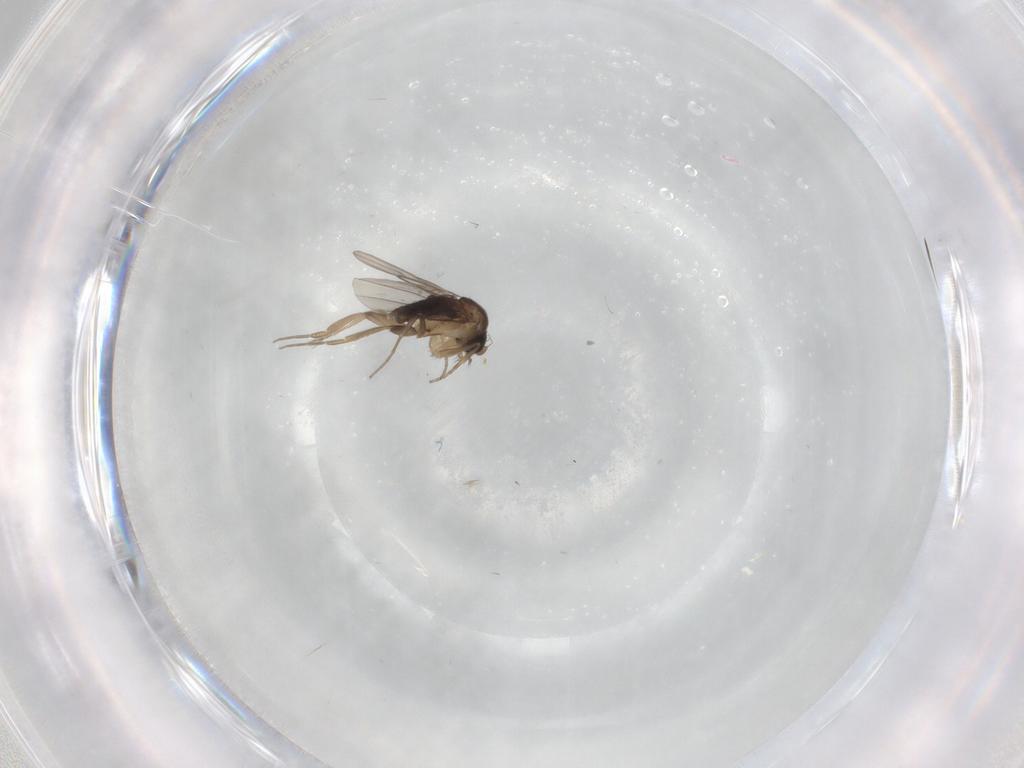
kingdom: Animalia
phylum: Arthropoda
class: Insecta
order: Diptera
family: Phoridae
